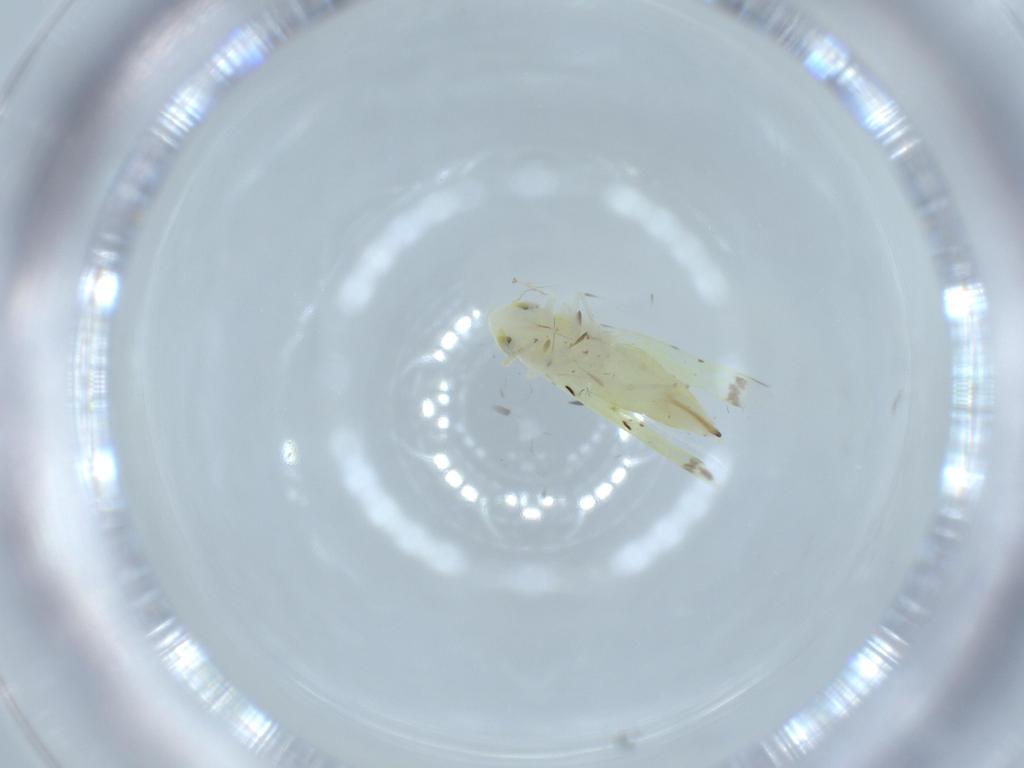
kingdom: Animalia
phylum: Arthropoda
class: Insecta
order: Hemiptera
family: Cicadellidae
